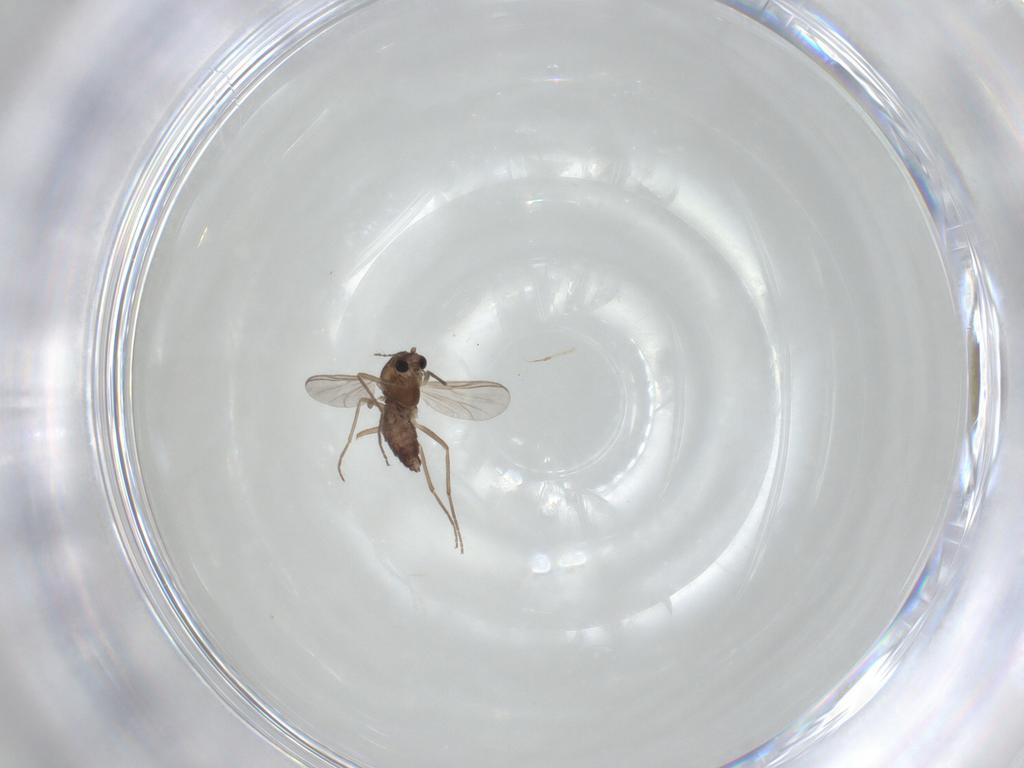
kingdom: Animalia
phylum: Arthropoda
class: Insecta
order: Diptera
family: Chironomidae
